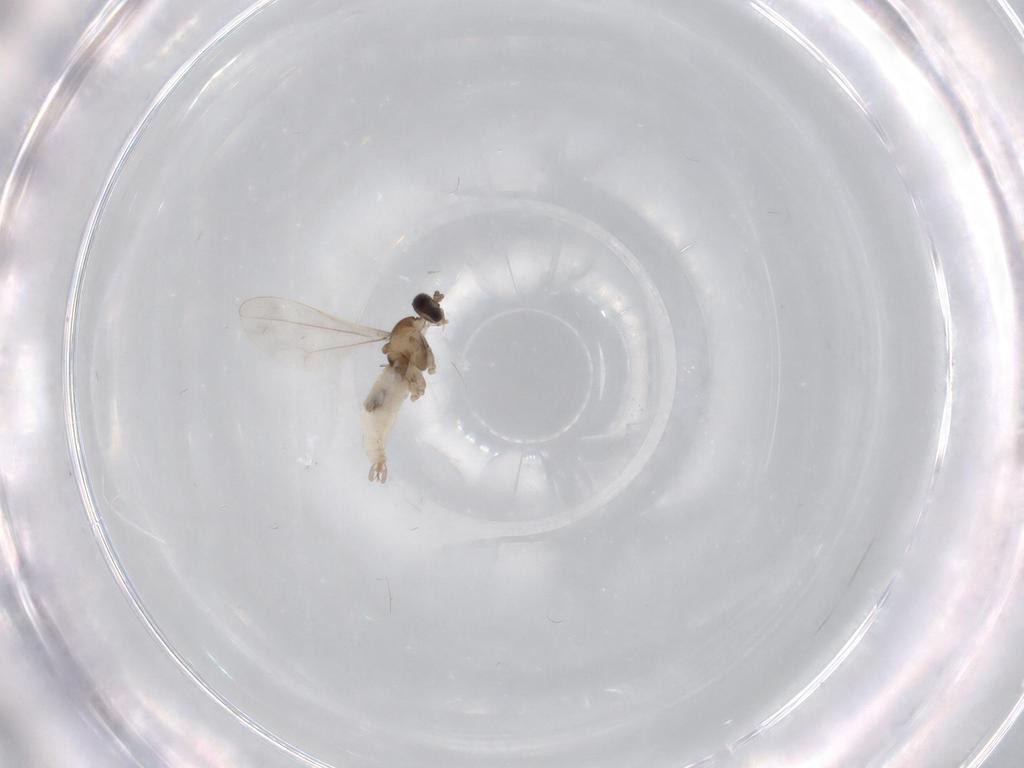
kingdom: Animalia
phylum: Arthropoda
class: Insecta
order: Diptera
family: Cecidomyiidae
